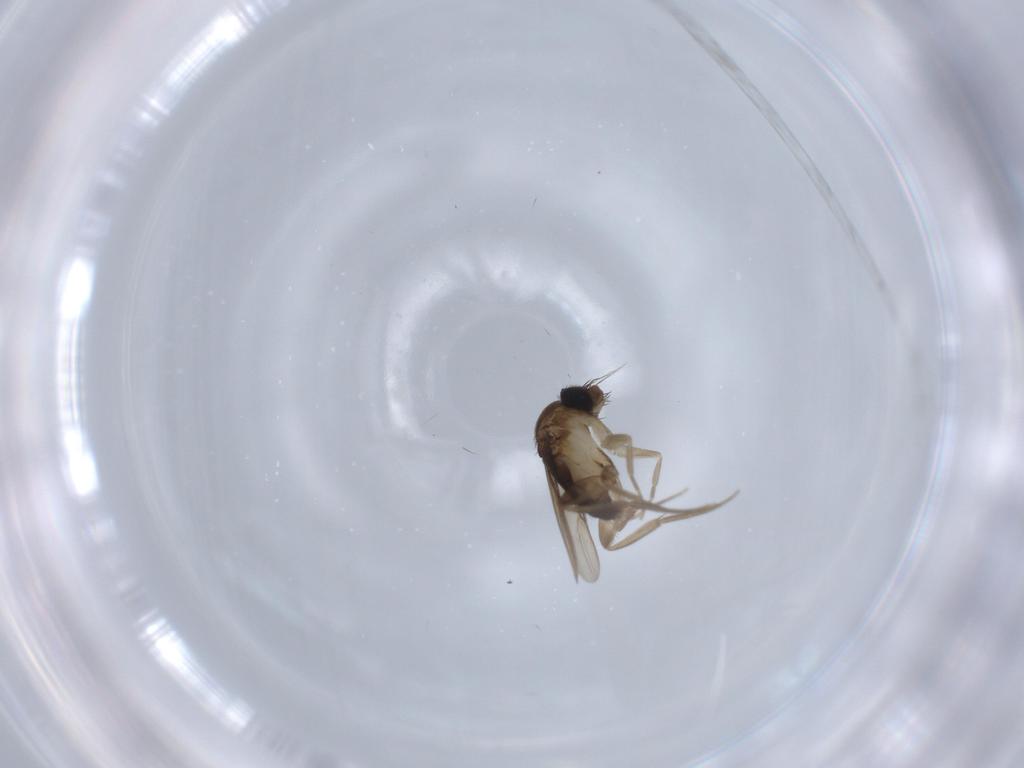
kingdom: Animalia
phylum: Arthropoda
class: Insecta
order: Diptera
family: Phoridae
